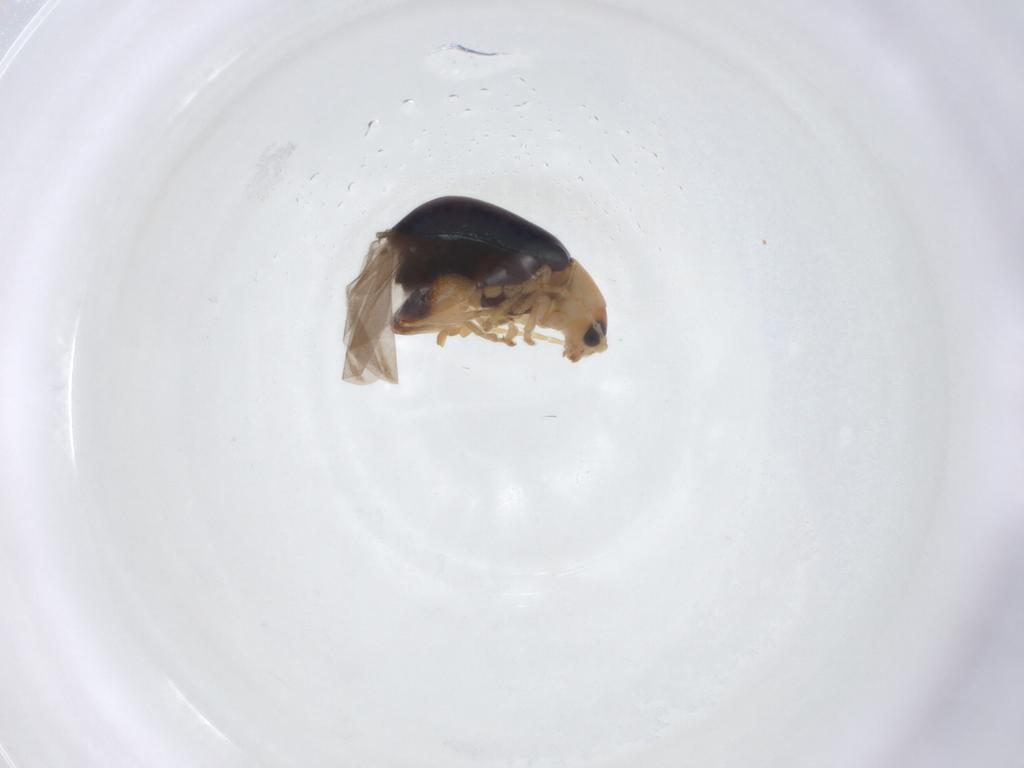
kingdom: Animalia
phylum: Arthropoda
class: Insecta
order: Coleoptera
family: Chrysomelidae
